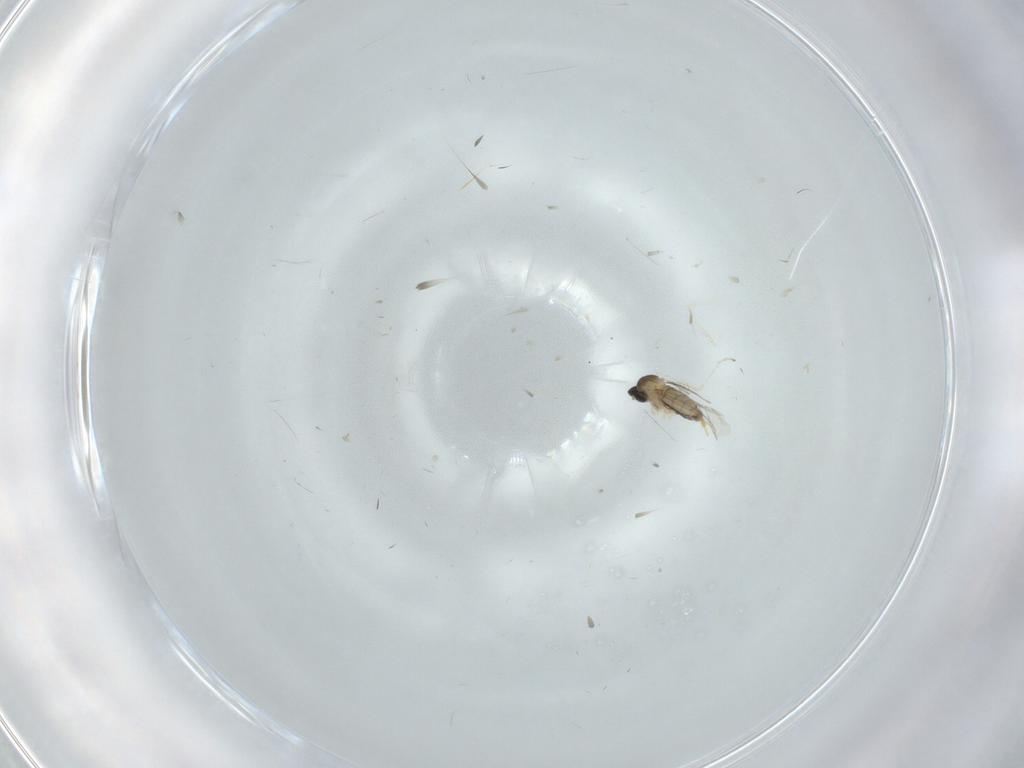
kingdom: Animalia
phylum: Arthropoda
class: Insecta
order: Diptera
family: Cecidomyiidae
